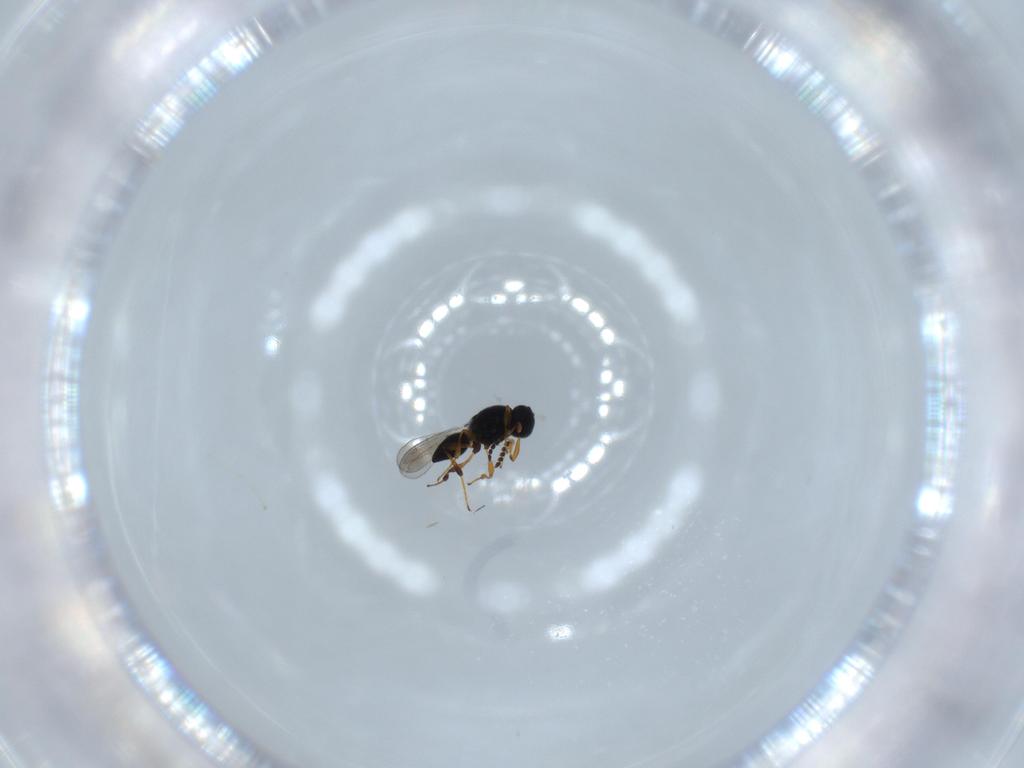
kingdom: Animalia
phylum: Arthropoda
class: Insecta
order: Hymenoptera
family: Platygastridae
